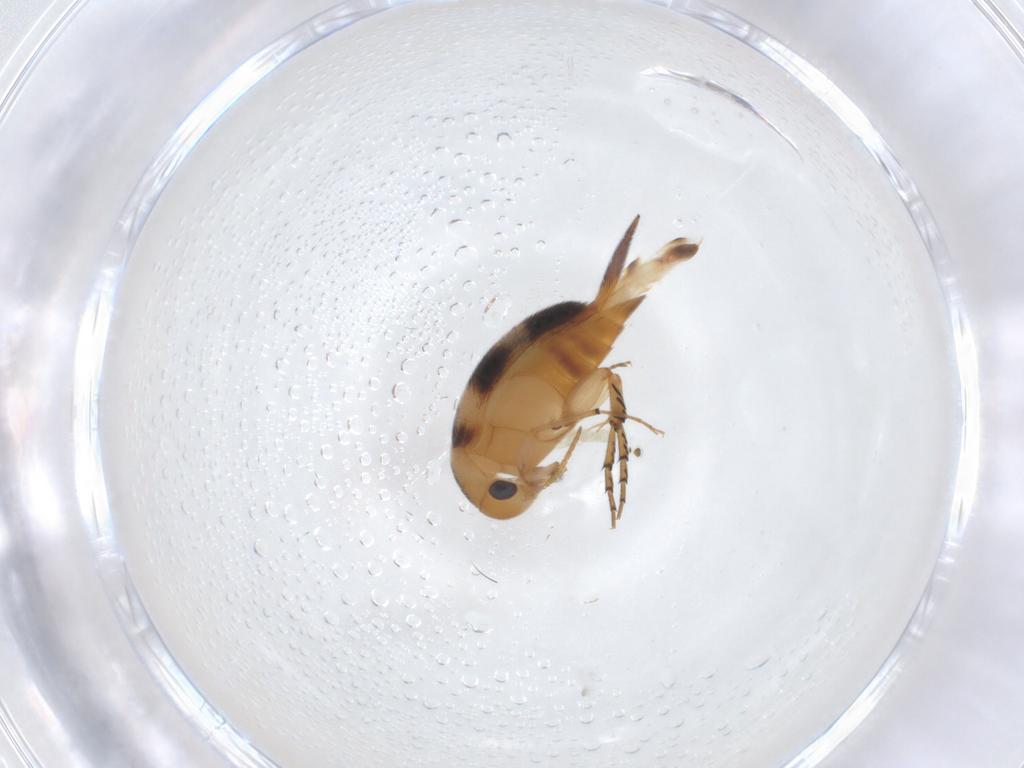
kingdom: Animalia
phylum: Arthropoda
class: Insecta
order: Coleoptera
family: Mordellidae
